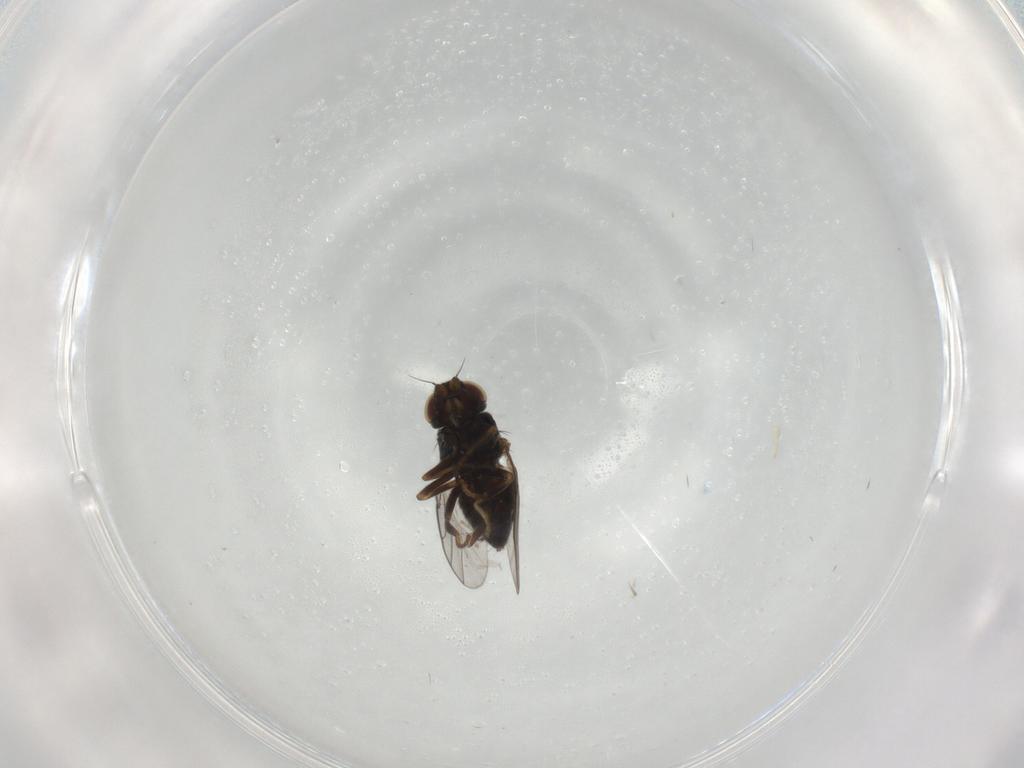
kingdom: Animalia
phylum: Arthropoda
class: Insecta
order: Diptera
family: Chloropidae
